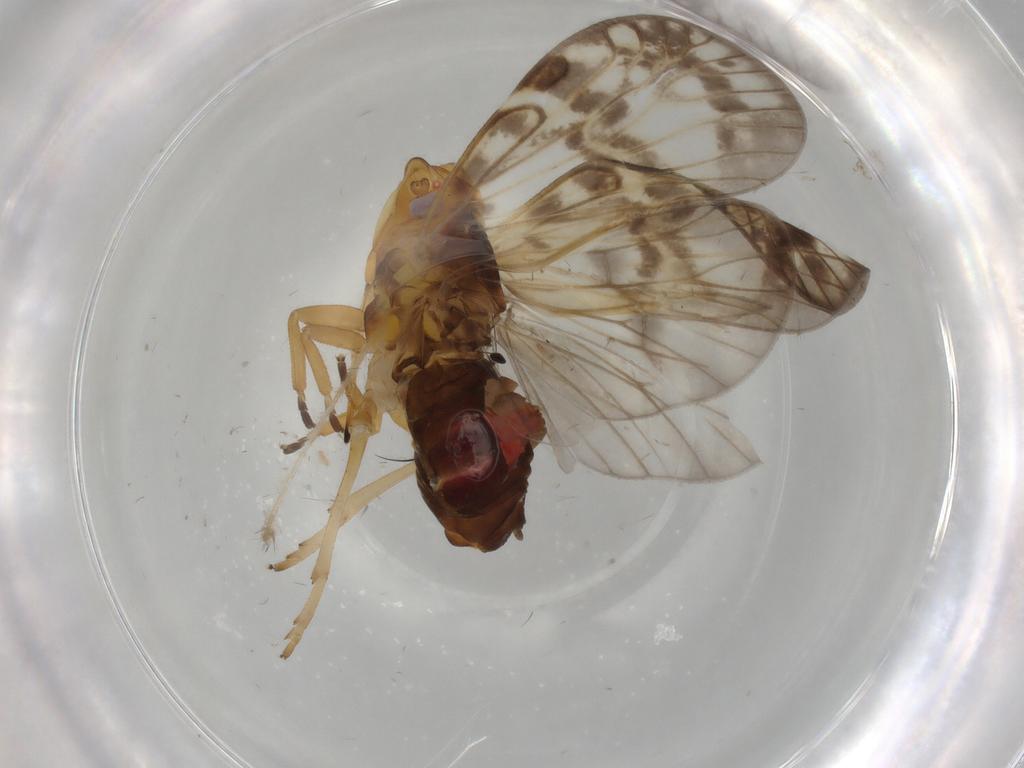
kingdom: Animalia
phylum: Arthropoda
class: Insecta
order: Hemiptera
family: Cixiidae
